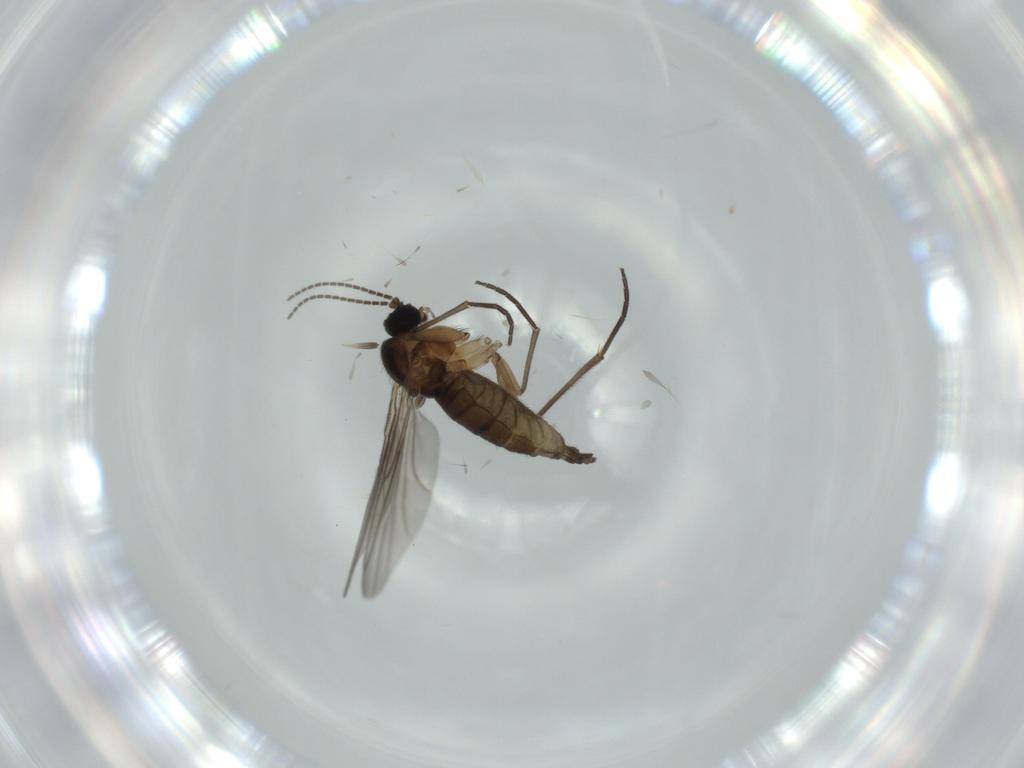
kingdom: Animalia
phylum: Arthropoda
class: Insecta
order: Diptera
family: Sciaridae
